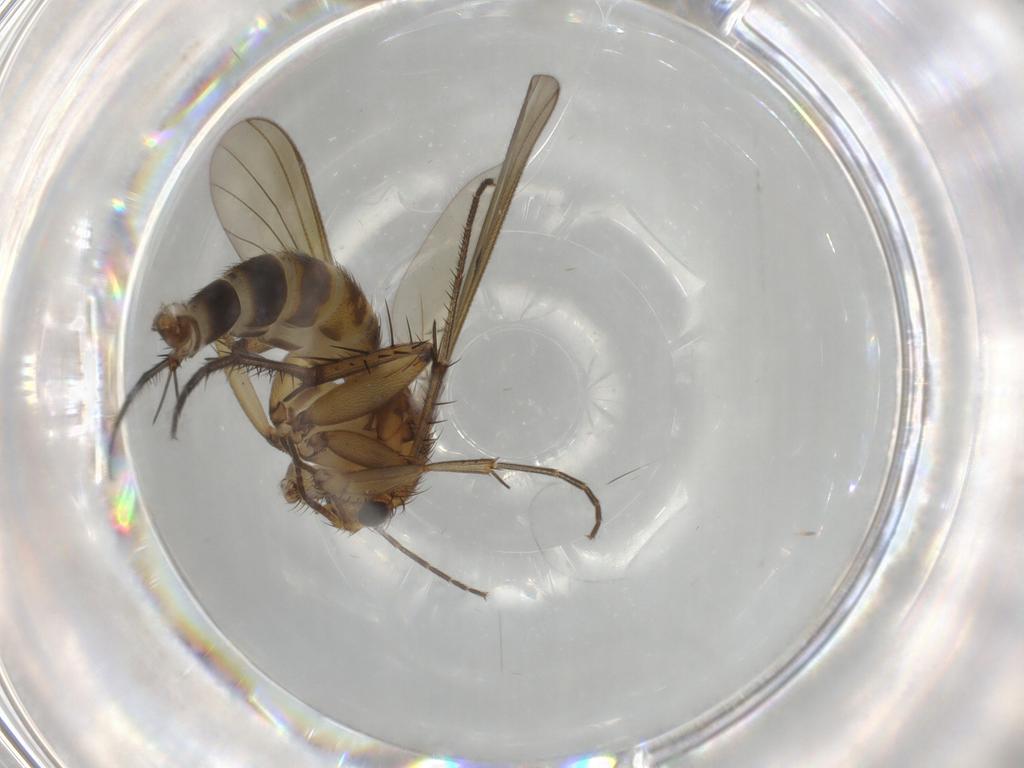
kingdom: Animalia
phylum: Arthropoda
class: Insecta
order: Diptera
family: Mycetophilidae
